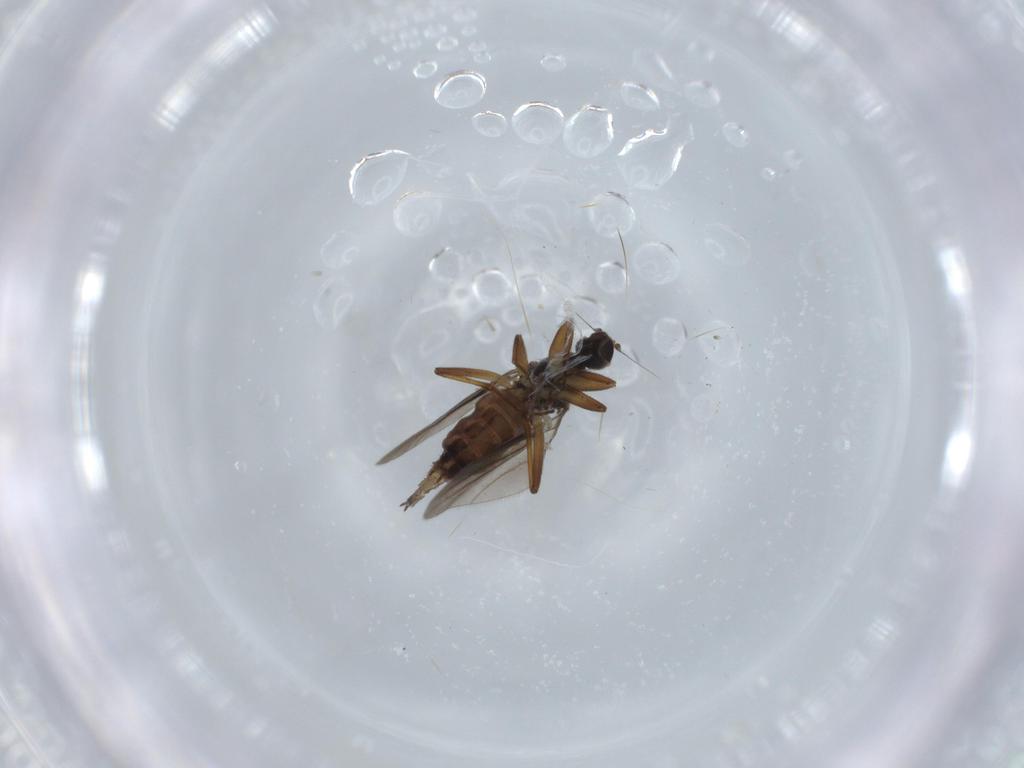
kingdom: Animalia
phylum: Arthropoda
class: Insecta
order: Diptera
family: Hybotidae
